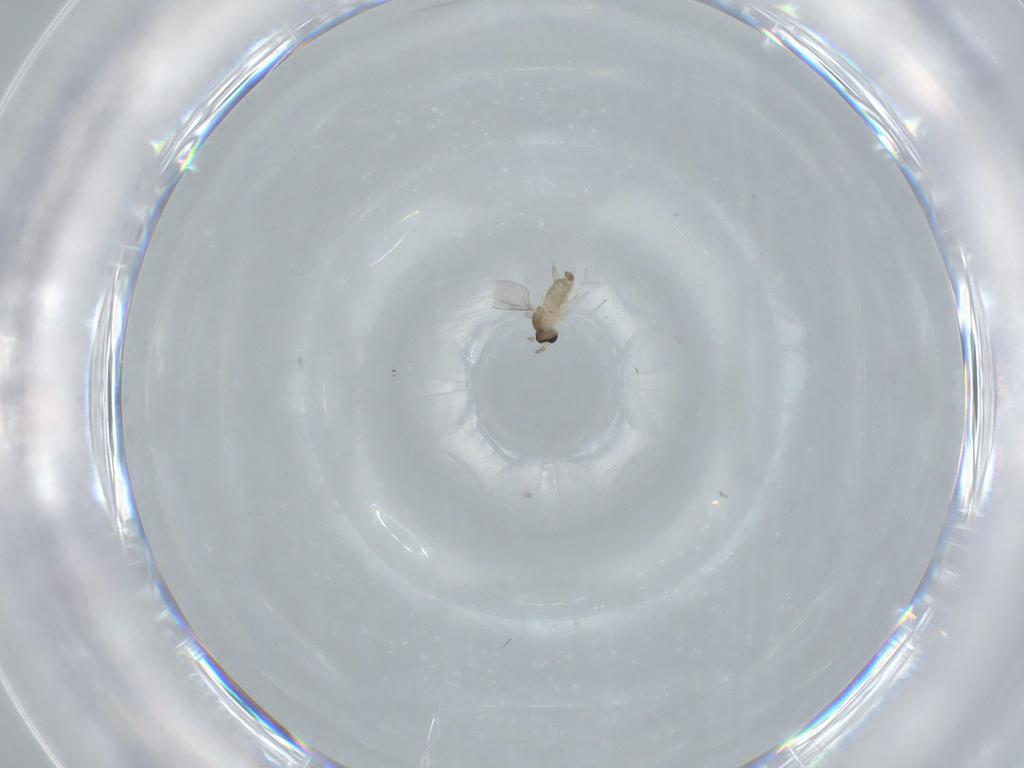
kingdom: Animalia
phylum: Arthropoda
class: Insecta
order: Diptera
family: Cecidomyiidae
